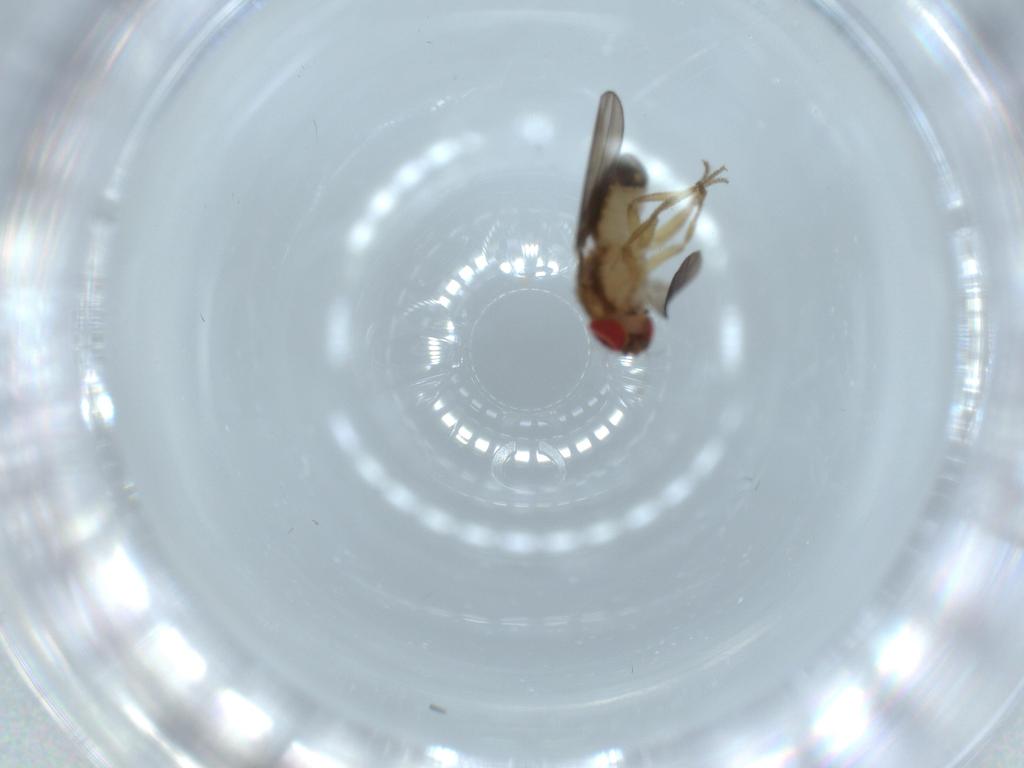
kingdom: Animalia
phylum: Arthropoda
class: Insecta
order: Diptera
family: Drosophilidae
